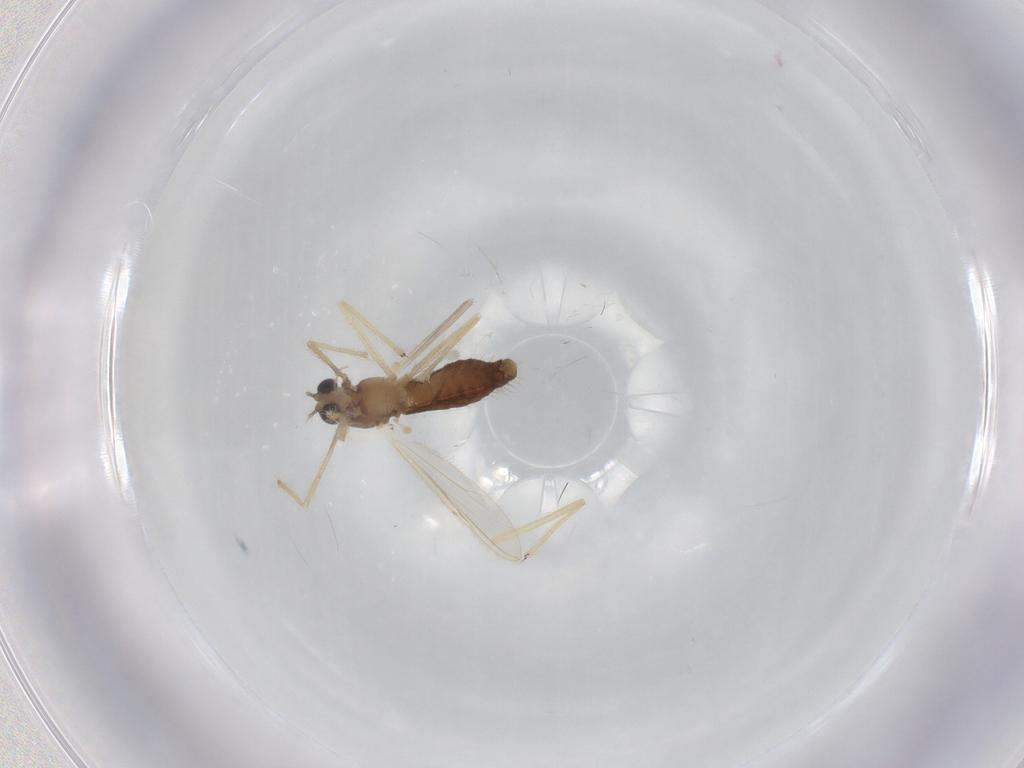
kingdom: Animalia
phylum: Arthropoda
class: Insecta
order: Diptera
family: Chironomidae
